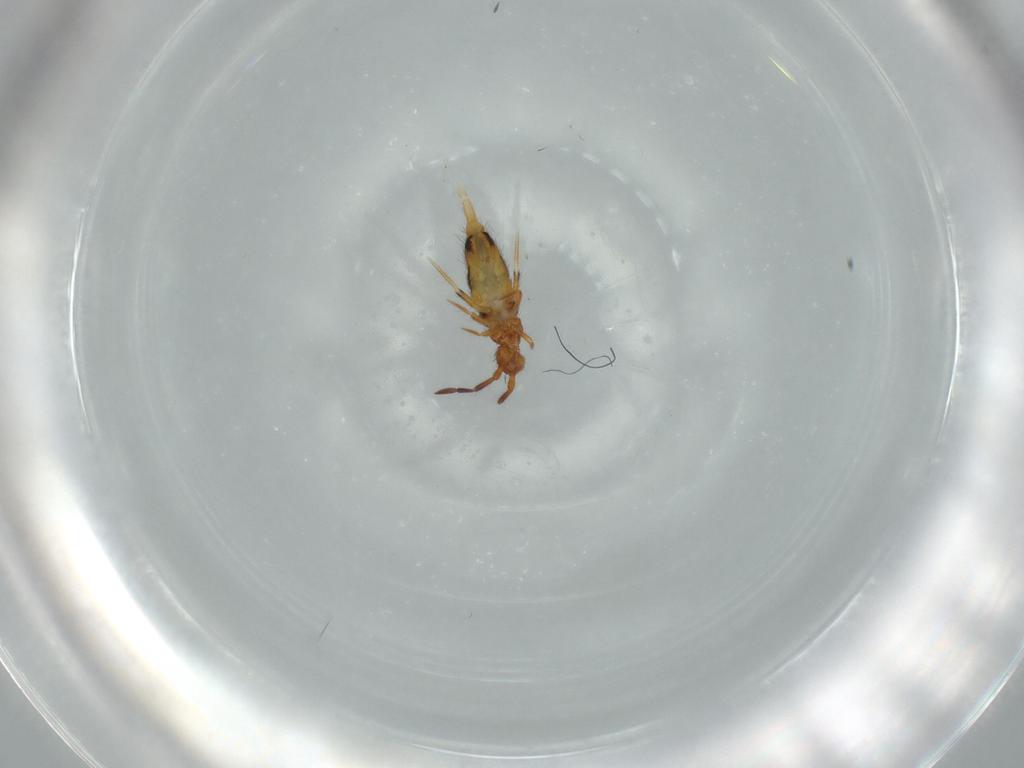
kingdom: Animalia
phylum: Arthropoda
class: Collembola
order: Entomobryomorpha
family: Entomobryidae
